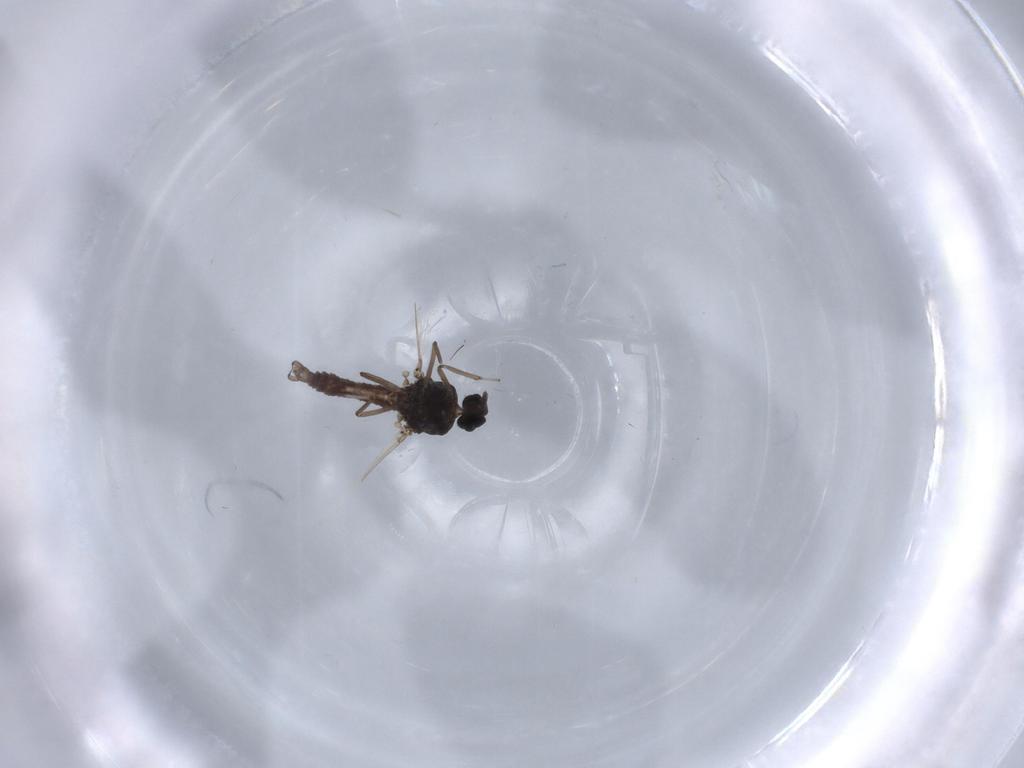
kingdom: Animalia
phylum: Arthropoda
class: Insecta
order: Diptera
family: Ceratopogonidae
